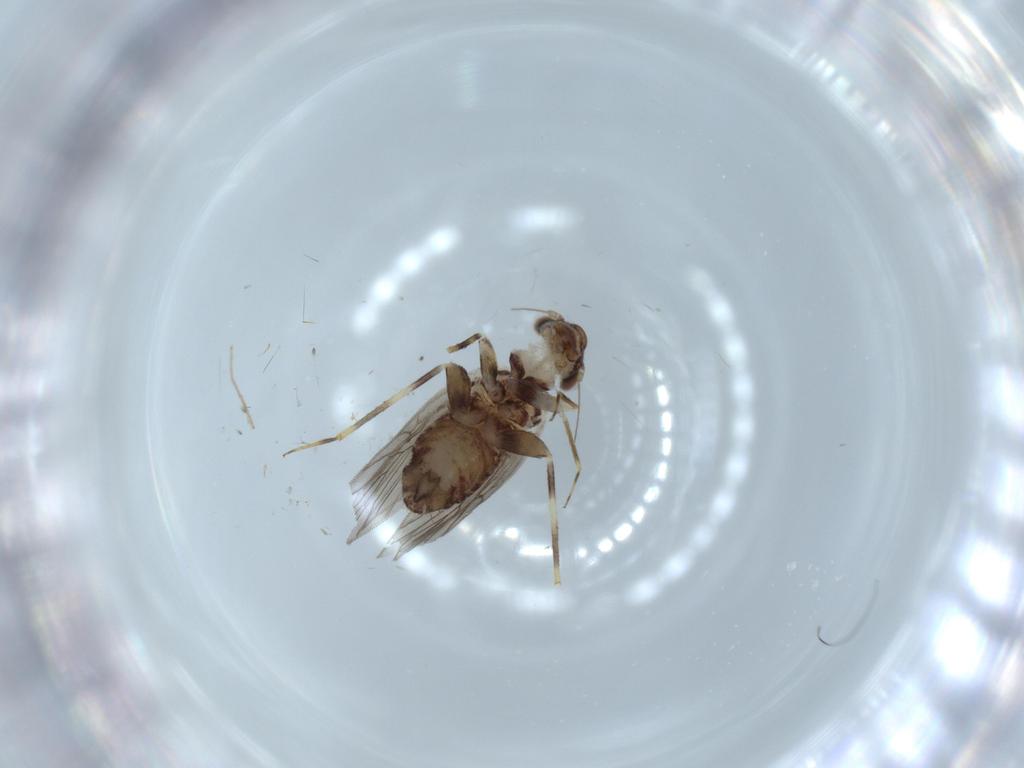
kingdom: Animalia
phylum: Arthropoda
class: Insecta
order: Psocodea
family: Lepidopsocidae
